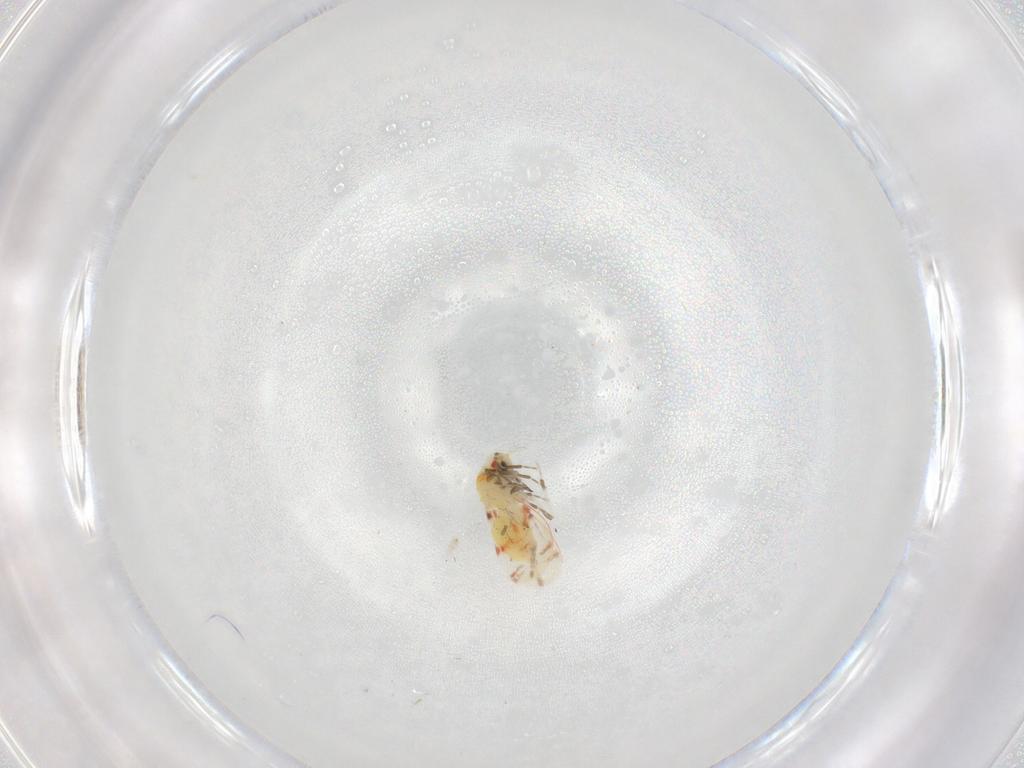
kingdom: Animalia
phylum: Arthropoda
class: Insecta
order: Hemiptera
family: Aleyrodidae
